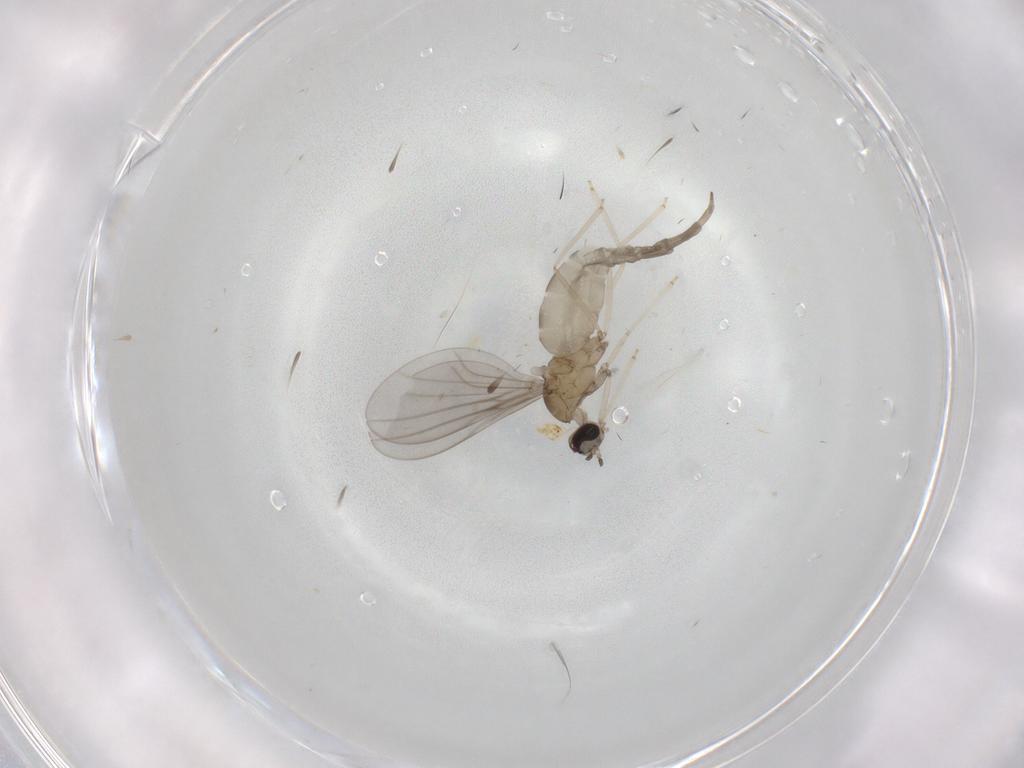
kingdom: Animalia
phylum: Arthropoda
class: Insecta
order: Diptera
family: Phoridae
